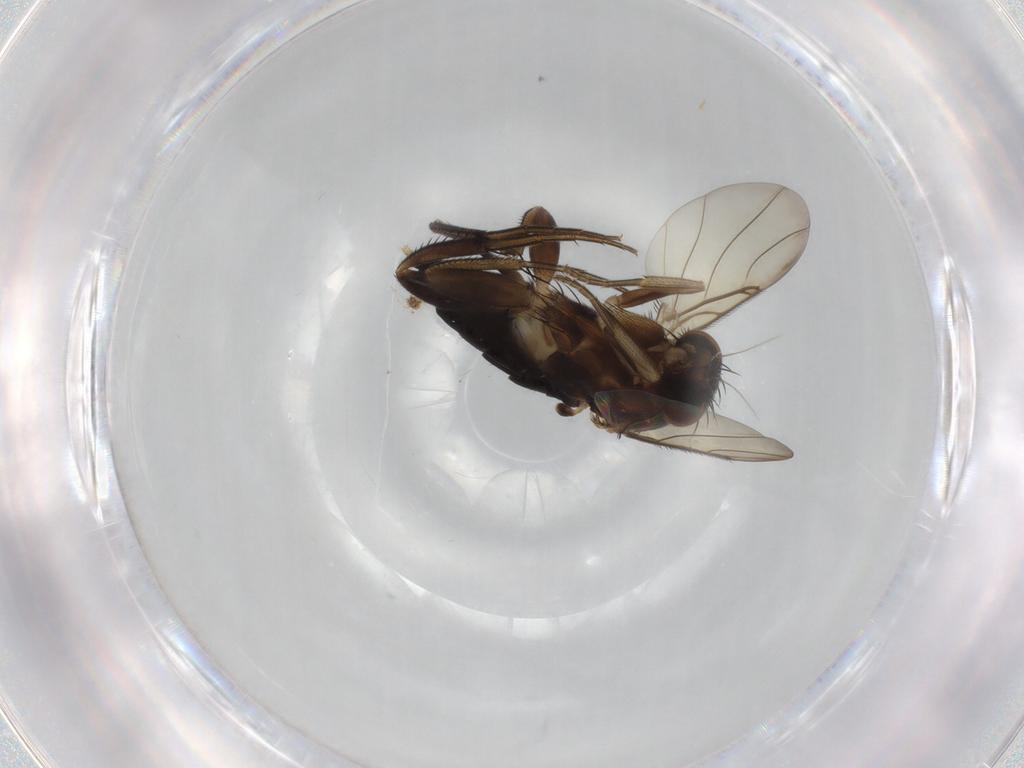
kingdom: Animalia
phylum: Arthropoda
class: Insecta
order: Diptera
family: Phoridae
